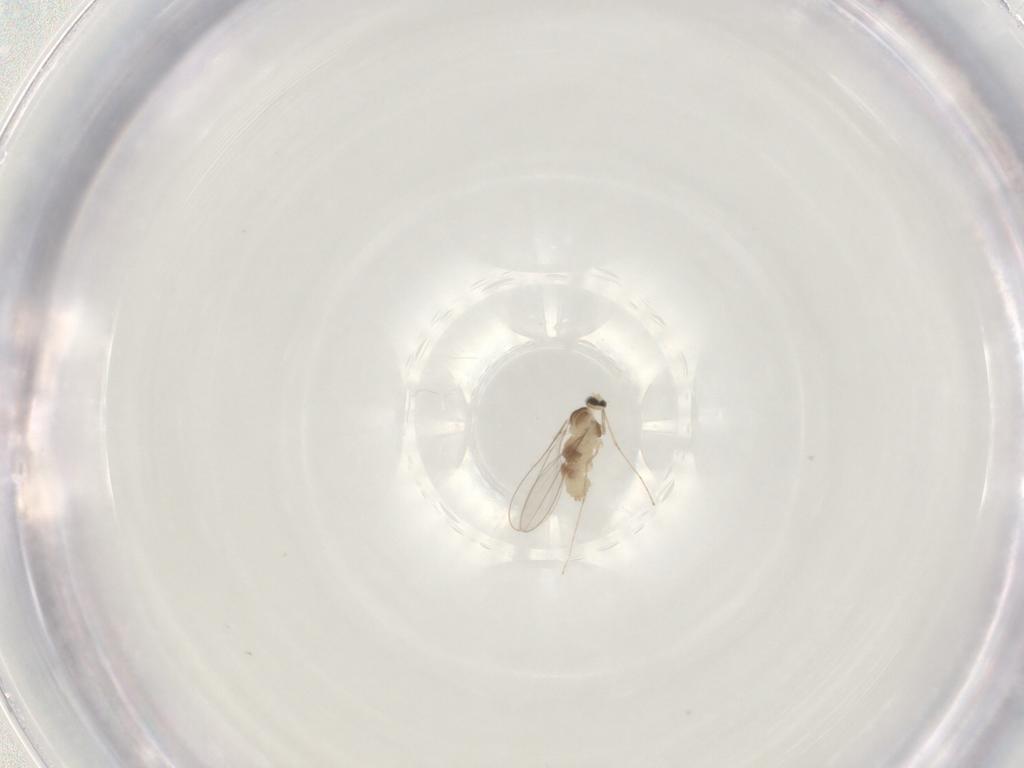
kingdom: Animalia
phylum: Arthropoda
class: Insecta
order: Diptera
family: Cecidomyiidae
